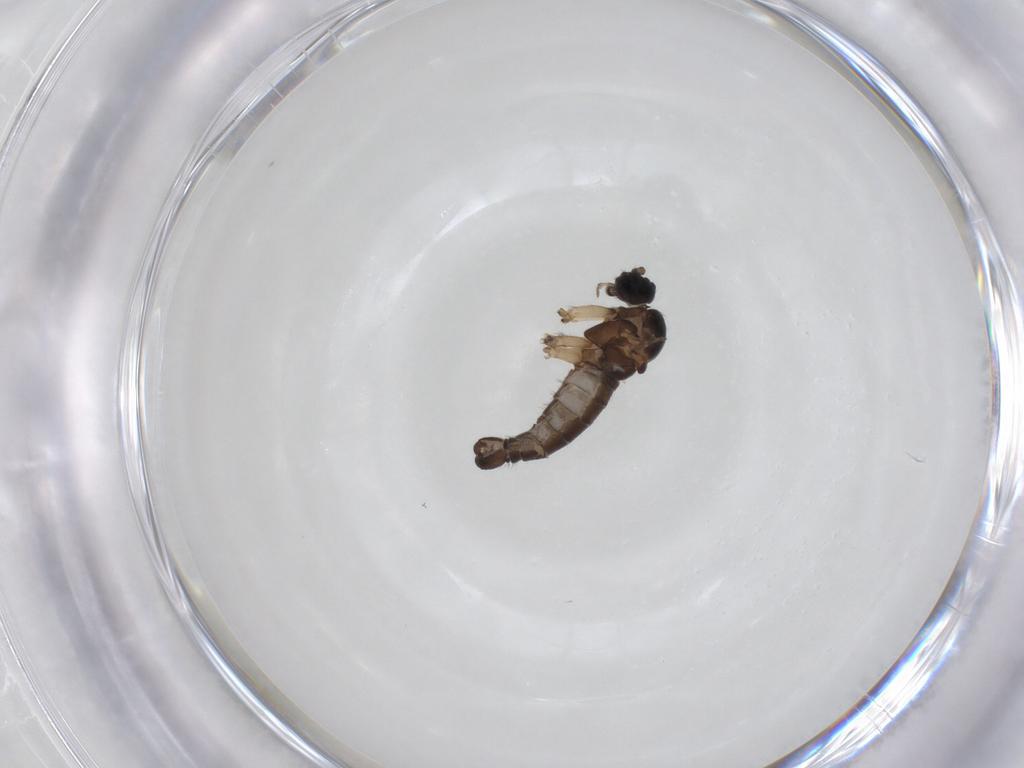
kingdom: Animalia
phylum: Arthropoda
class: Insecta
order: Diptera
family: Sciaridae
